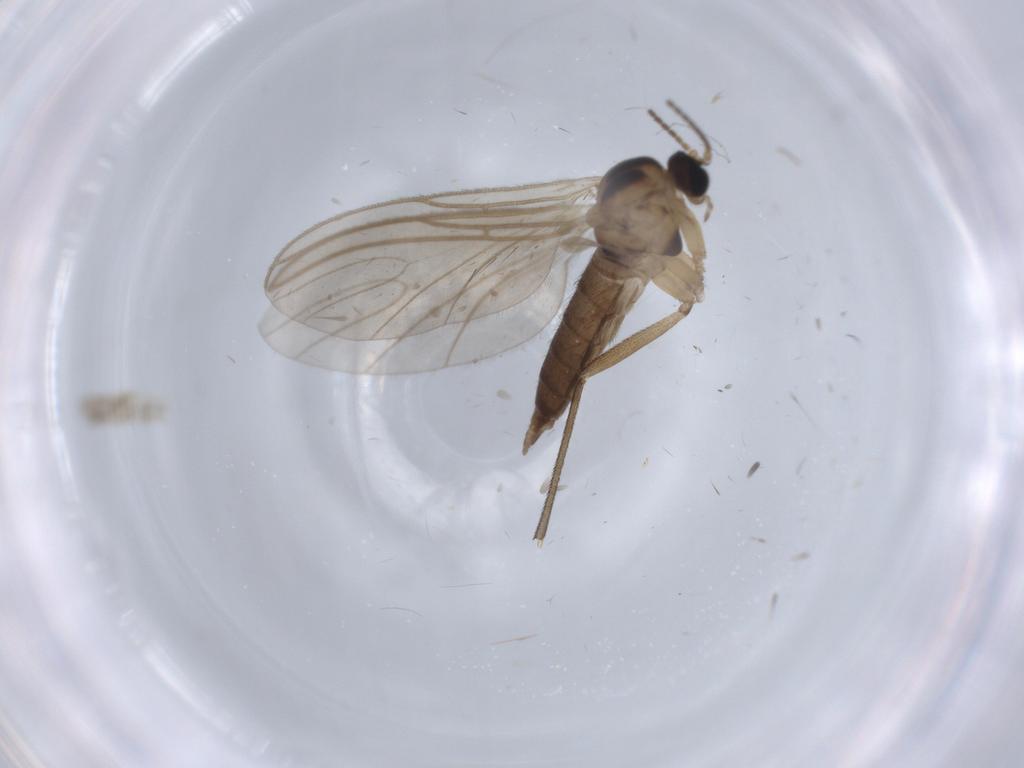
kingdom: Animalia
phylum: Arthropoda
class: Insecta
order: Diptera
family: Sciaridae
